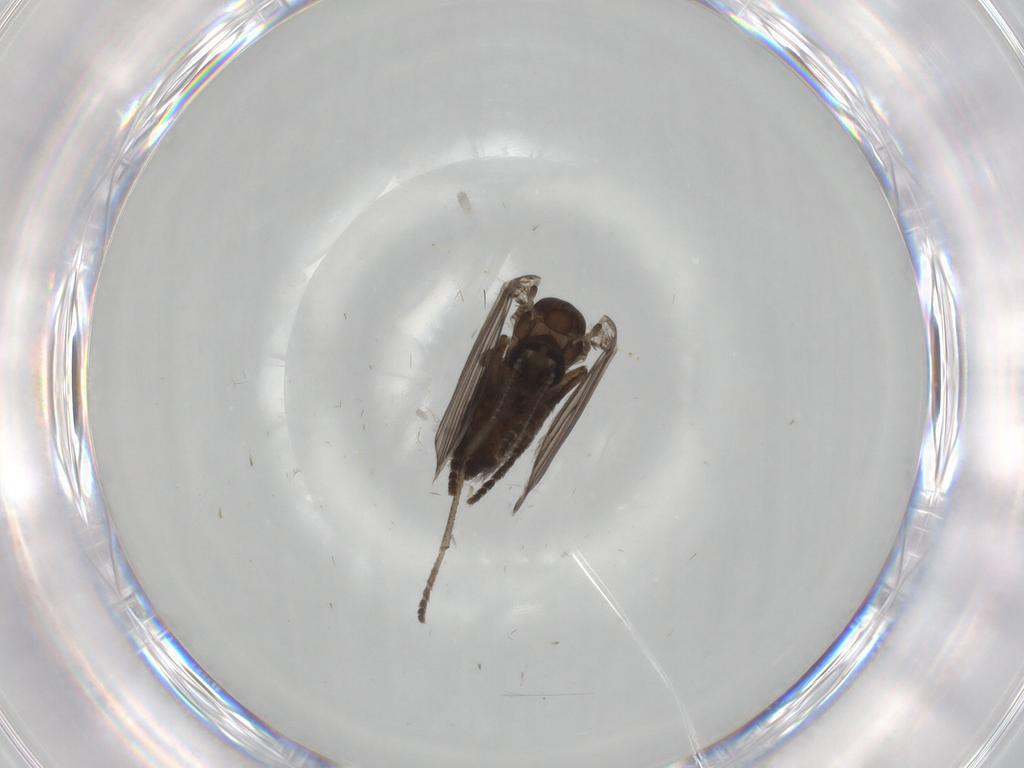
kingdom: Animalia
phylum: Arthropoda
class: Insecta
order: Diptera
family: Psychodidae
